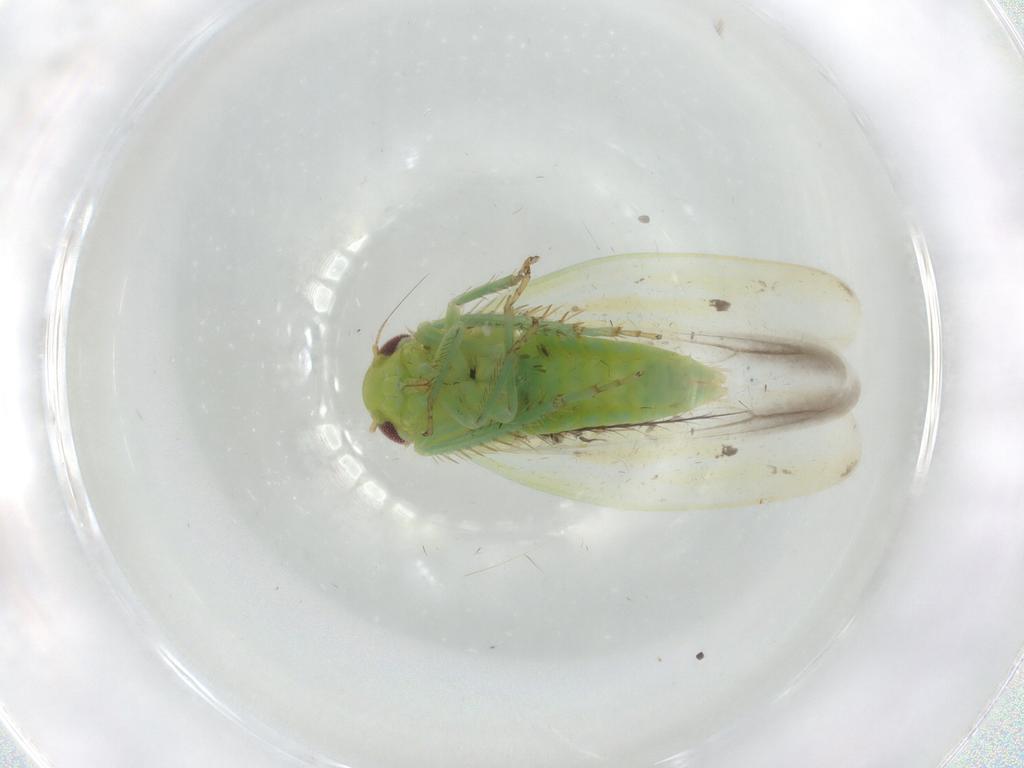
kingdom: Animalia
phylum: Arthropoda
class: Insecta
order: Hemiptera
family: Cicadellidae
